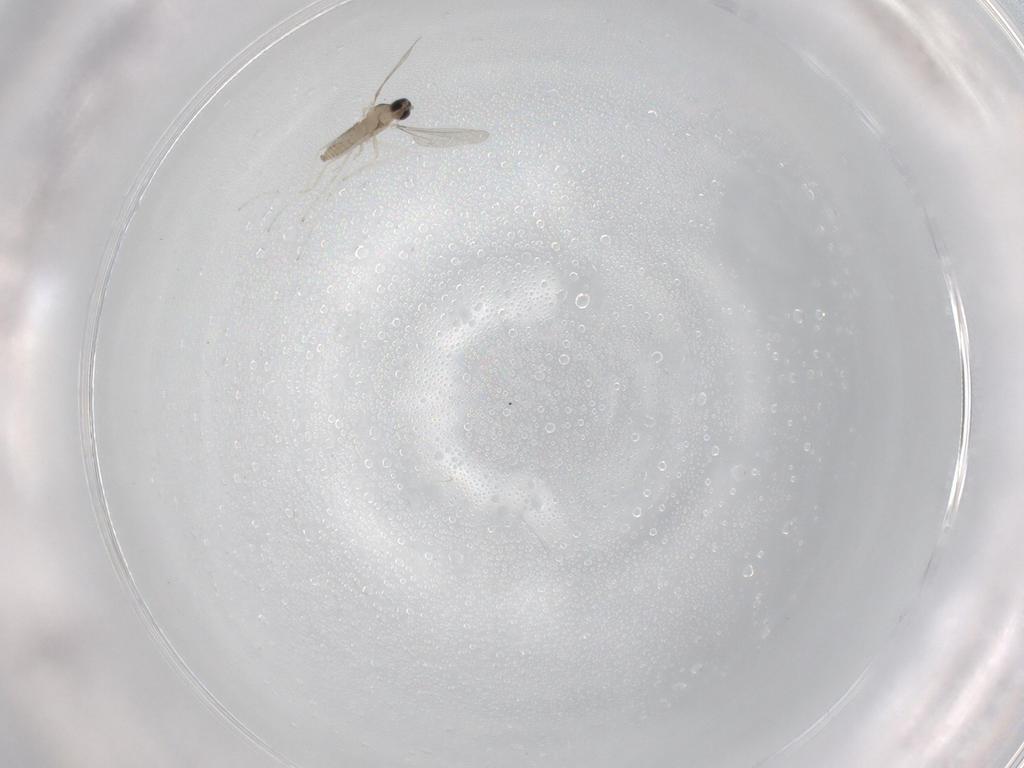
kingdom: Animalia
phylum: Arthropoda
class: Insecta
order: Diptera
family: Cecidomyiidae
